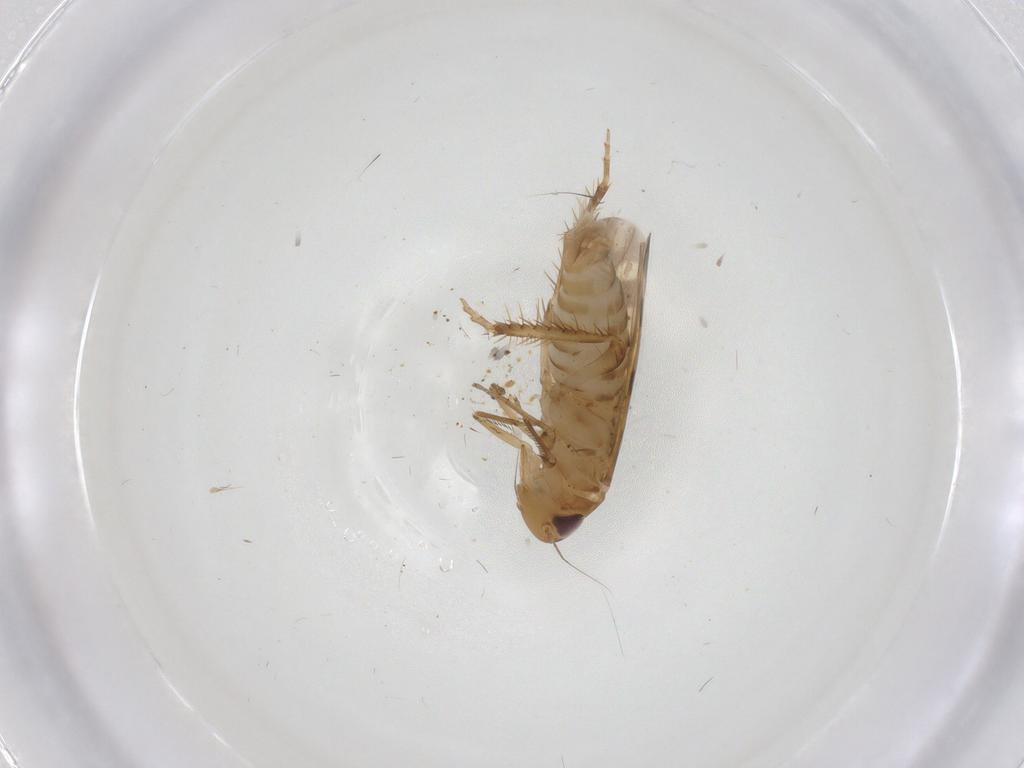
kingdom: Animalia
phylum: Arthropoda
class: Insecta
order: Hemiptera
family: Cicadellidae
